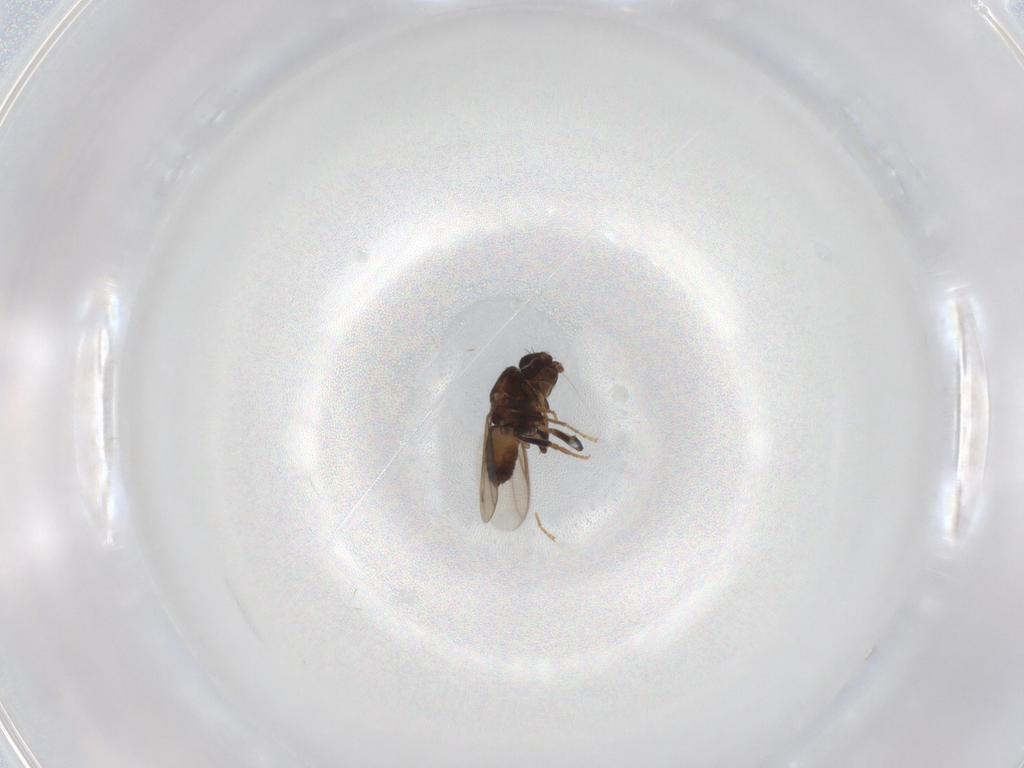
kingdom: Animalia
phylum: Arthropoda
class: Insecta
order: Diptera
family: Sphaeroceridae
